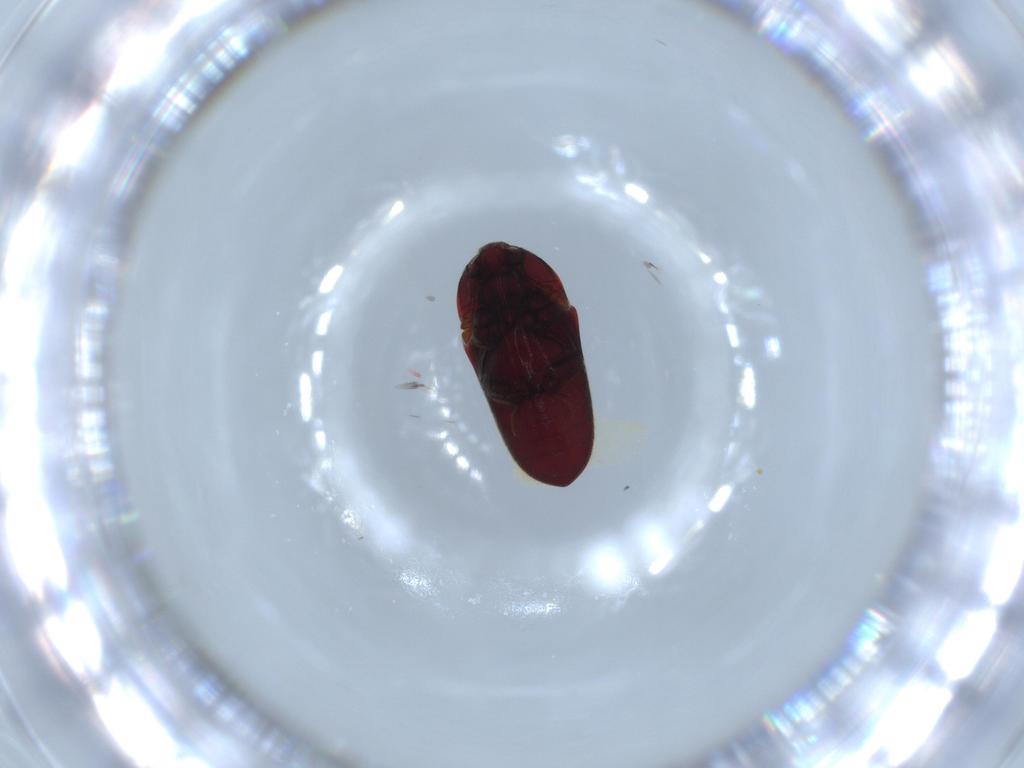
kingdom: Animalia
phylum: Arthropoda
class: Insecta
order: Coleoptera
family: Throscidae
